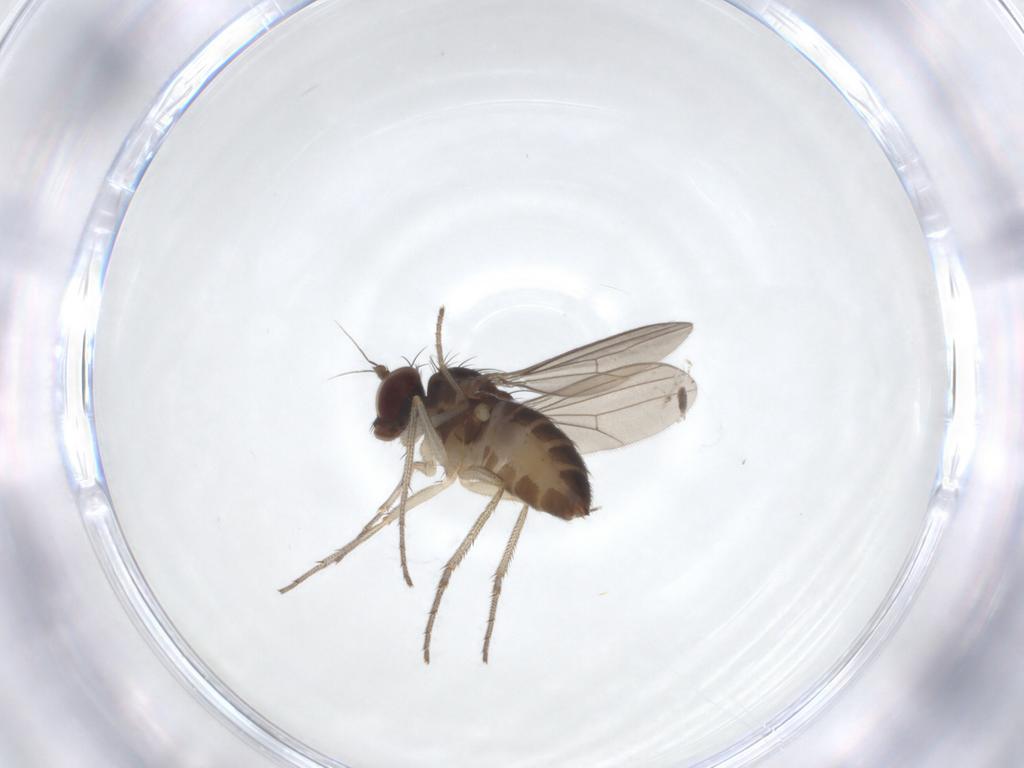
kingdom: Animalia
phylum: Arthropoda
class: Insecta
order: Diptera
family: Dolichopodidae
